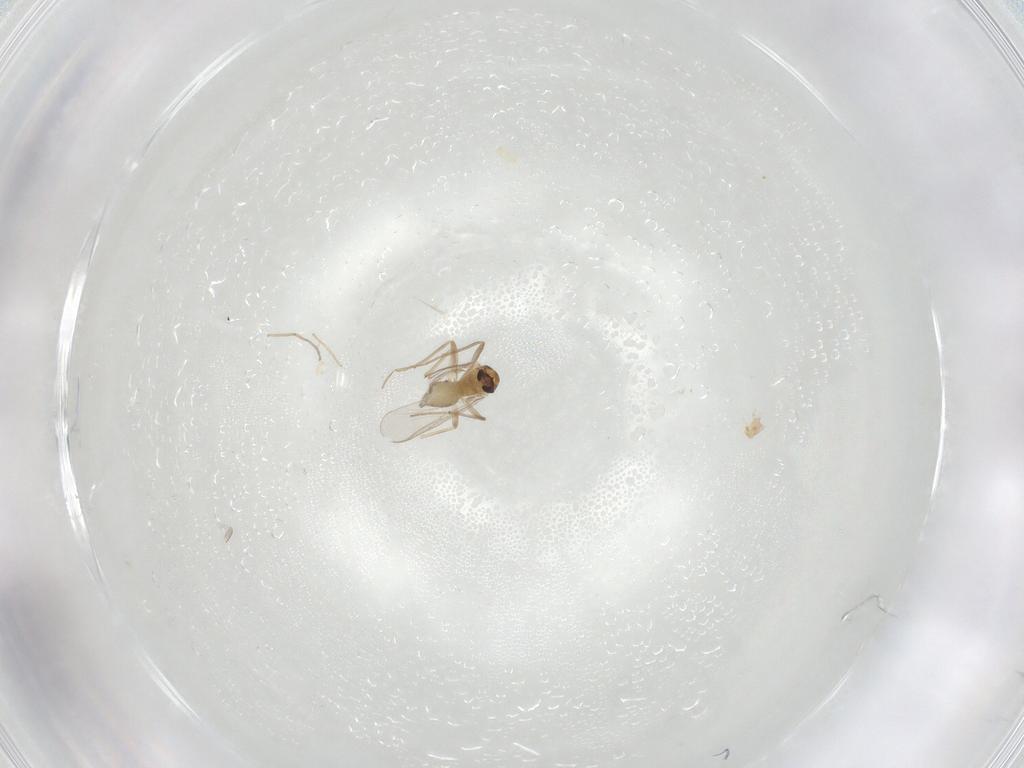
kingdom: Animalia
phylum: Arthropoda
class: Insecta
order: Diptera
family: Chironomidae
